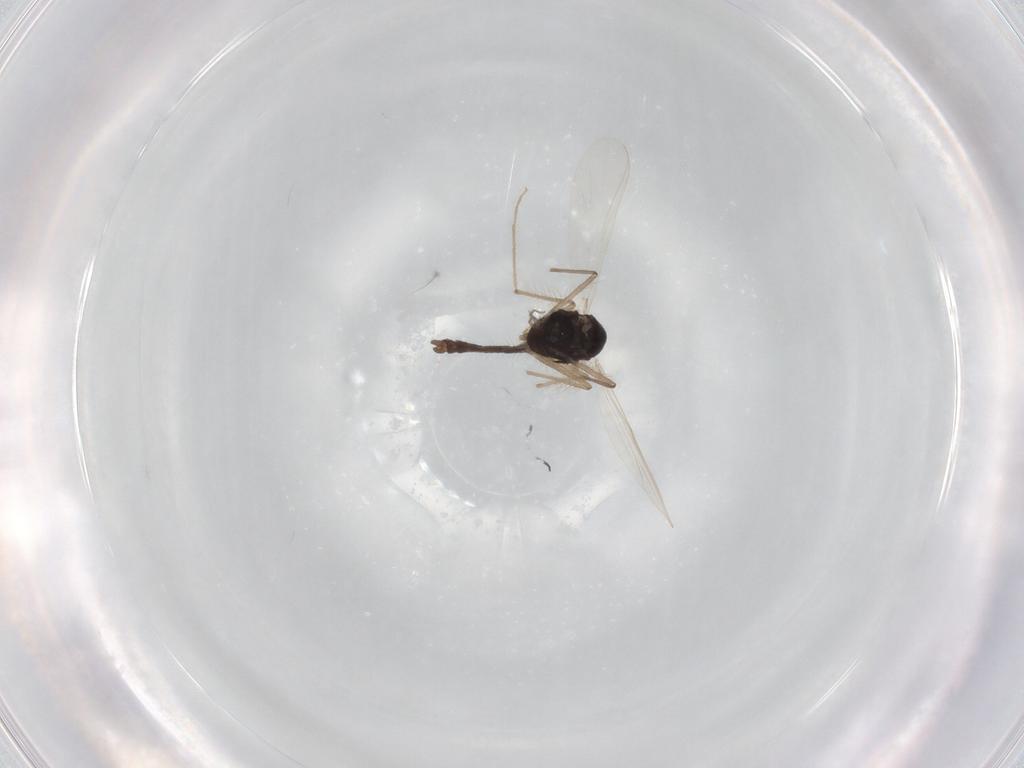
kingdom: Animalia
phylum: Arthropoda
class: Insecta
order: Diptera
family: Chironomidae
